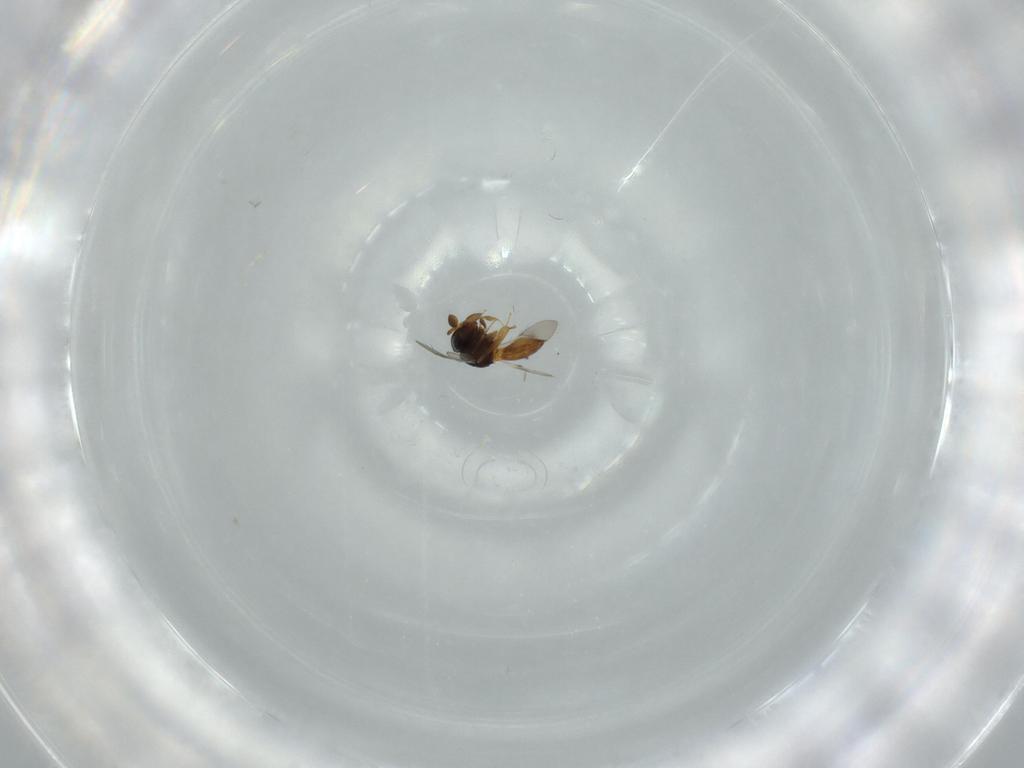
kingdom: Animalia
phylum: Arthropoda
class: Insecta
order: Hymenoptera
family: Scelionidae
